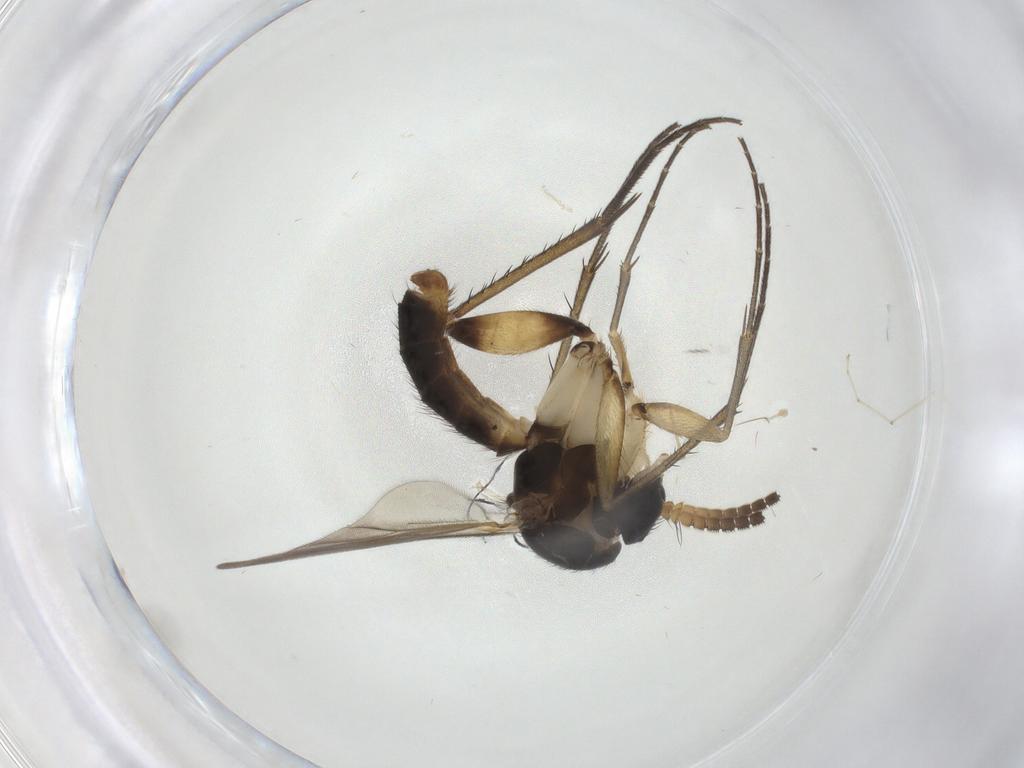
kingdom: Animalia
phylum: Arthropoda
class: Insecta
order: Diptera
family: Mycetophilidae
